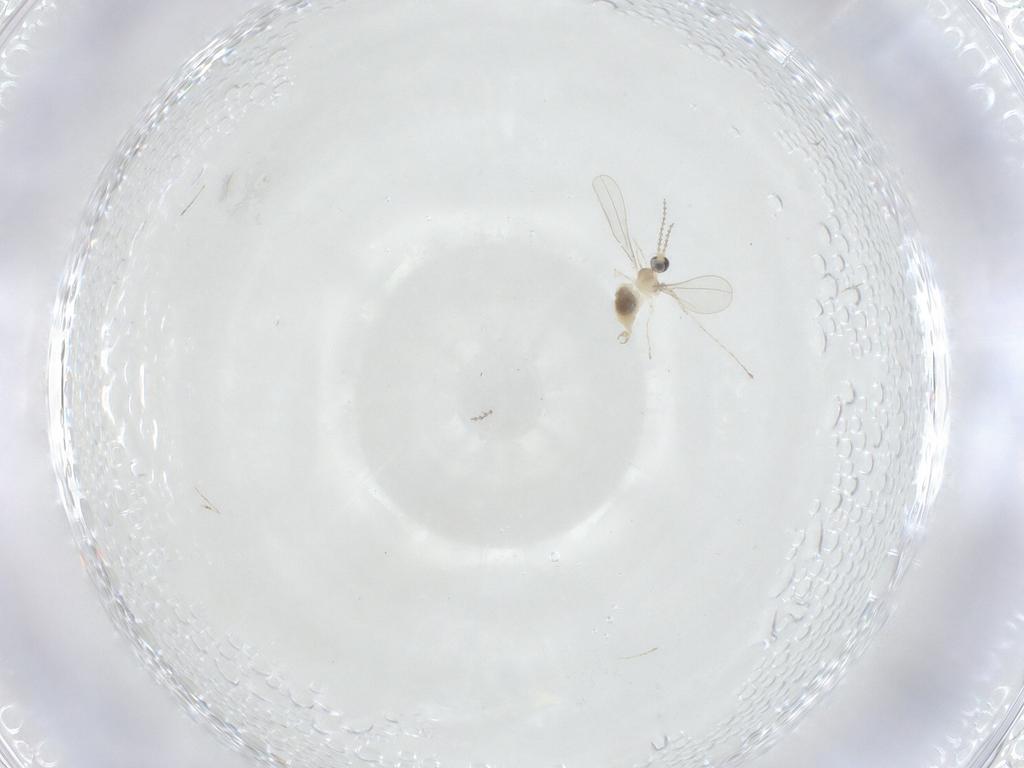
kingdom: Animalia
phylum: Arthropoda
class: Insecta
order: Diptera
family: Cecidomyiidae
